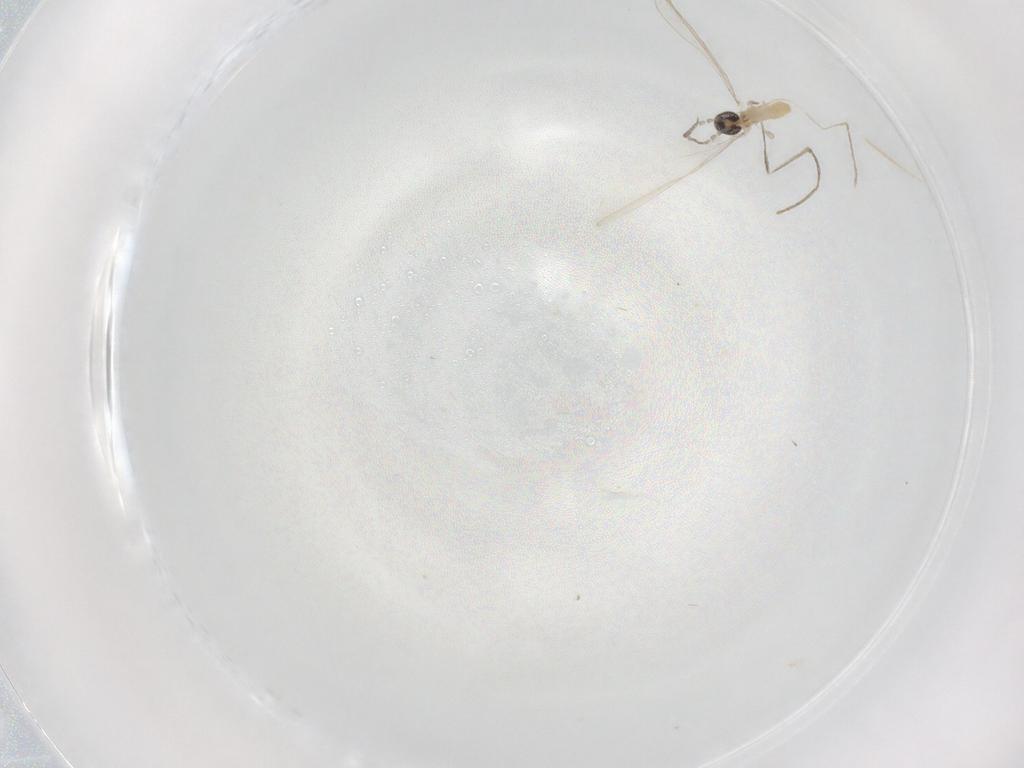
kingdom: Animalia
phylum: Arthropoda
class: Insecta
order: Diptera
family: Cecidomyiidae
